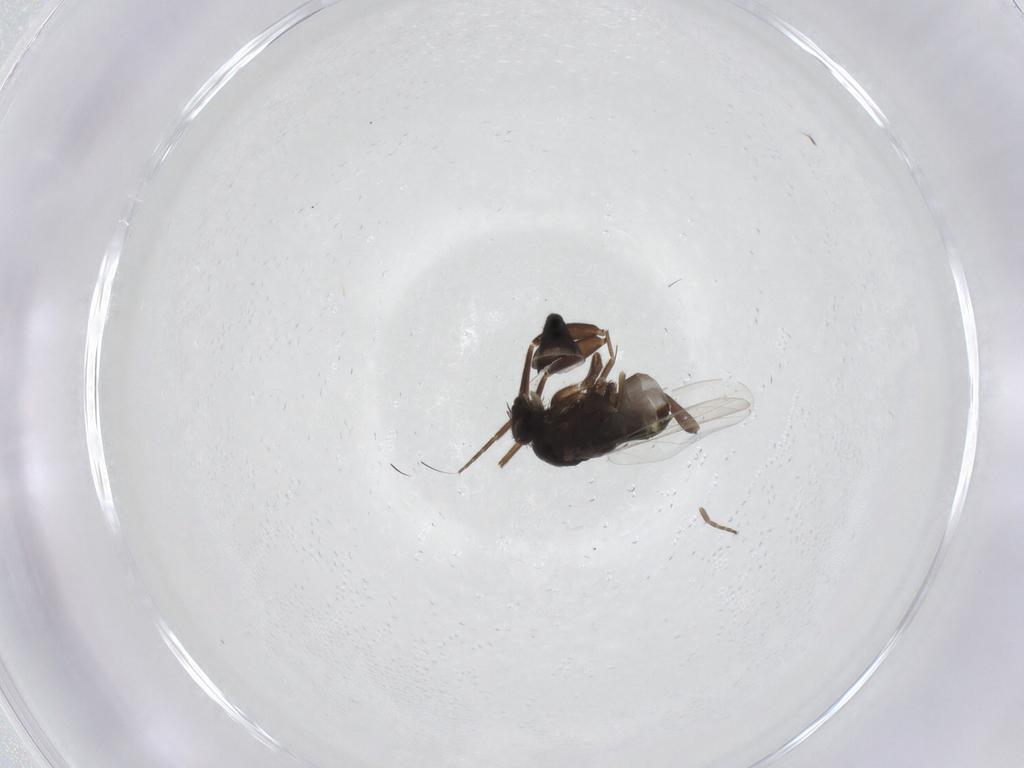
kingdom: Animalia
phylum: Arthropoda
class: Insecta
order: Diptera
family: Phoridae
